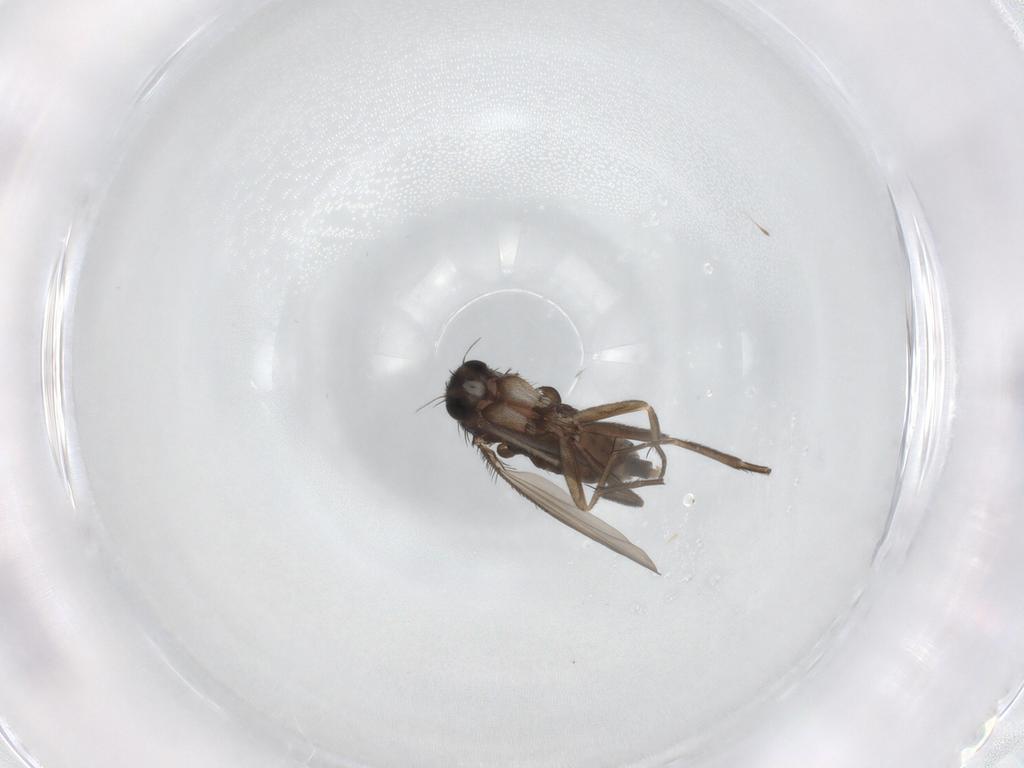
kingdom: Animalia
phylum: Arthropoda
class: Insecta
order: Diptera
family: Phoridae
